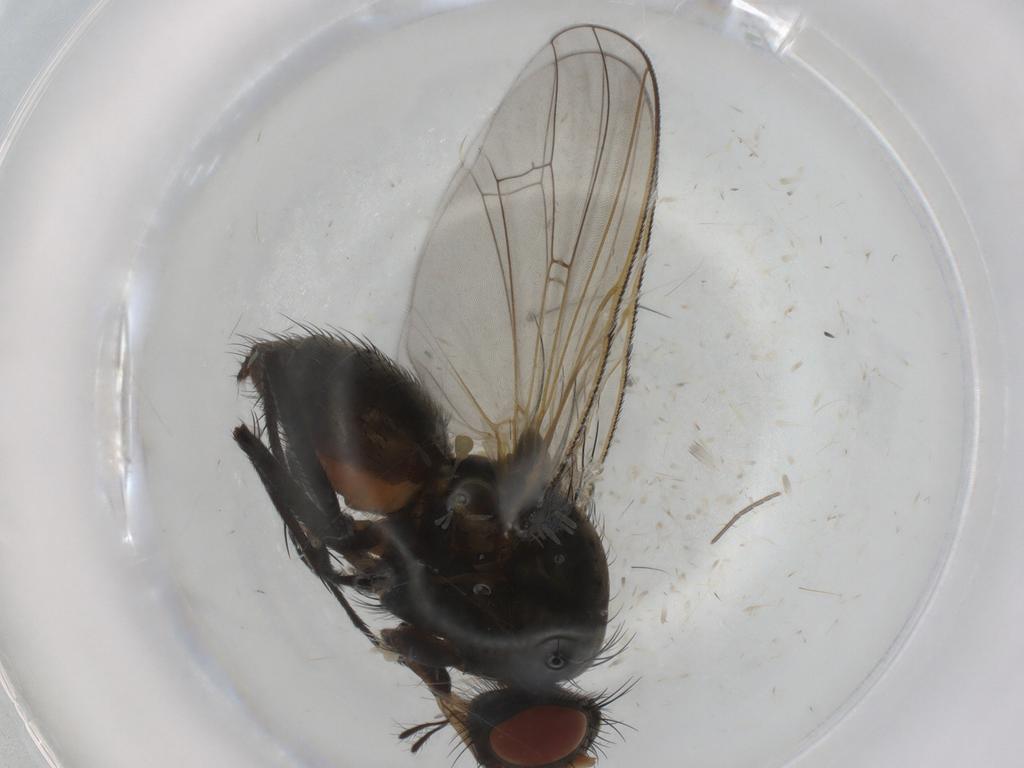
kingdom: Animalia
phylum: Arthropoda
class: Insecta
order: Diptera
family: Anthomyiidae
